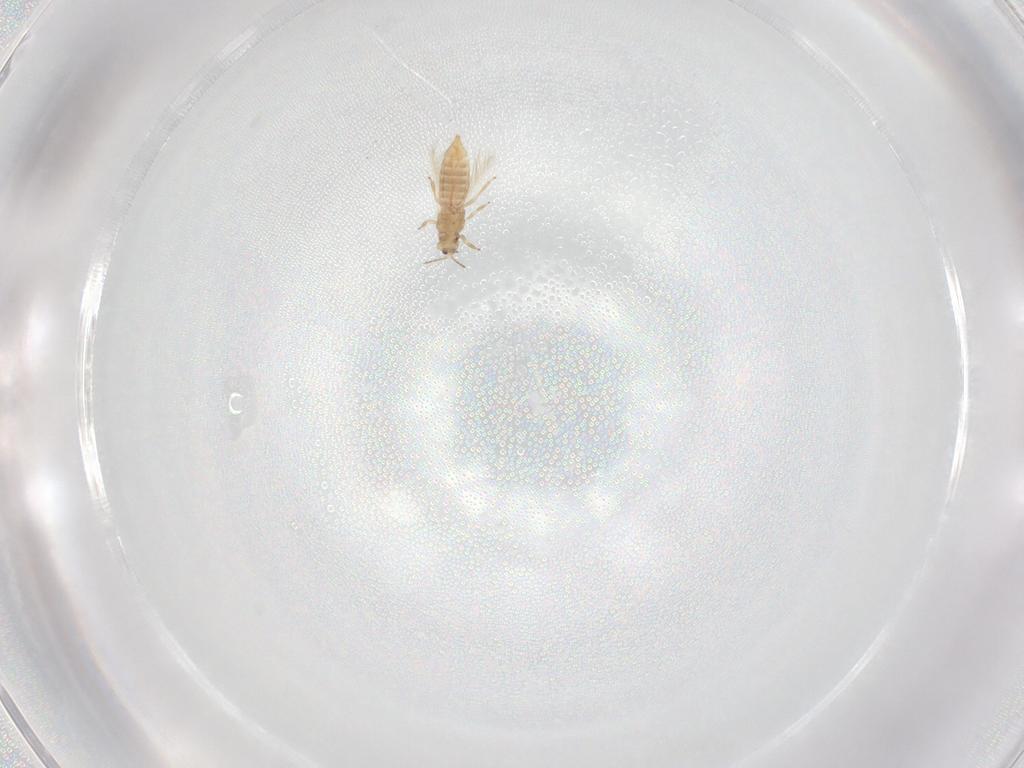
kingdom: Animalia
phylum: Arthropoda
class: Insecta
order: Thysanoptera
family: Thripidae
